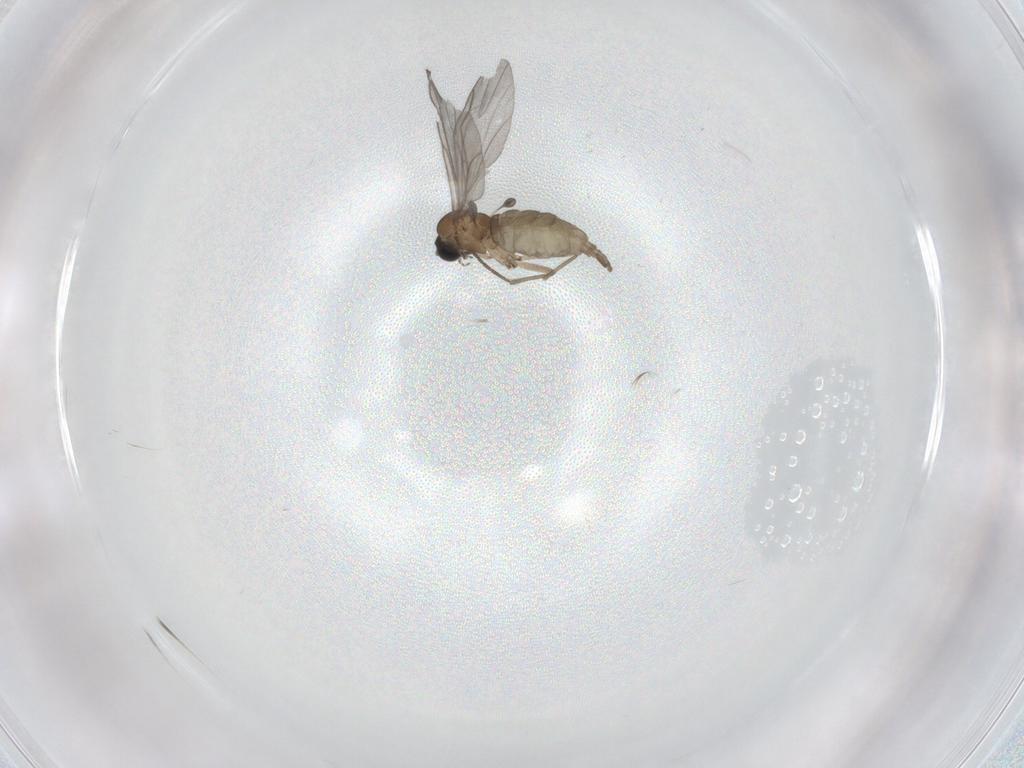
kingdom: Animalia
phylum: Arthropoda
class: Insecta
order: Diptera
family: Sciaridae
